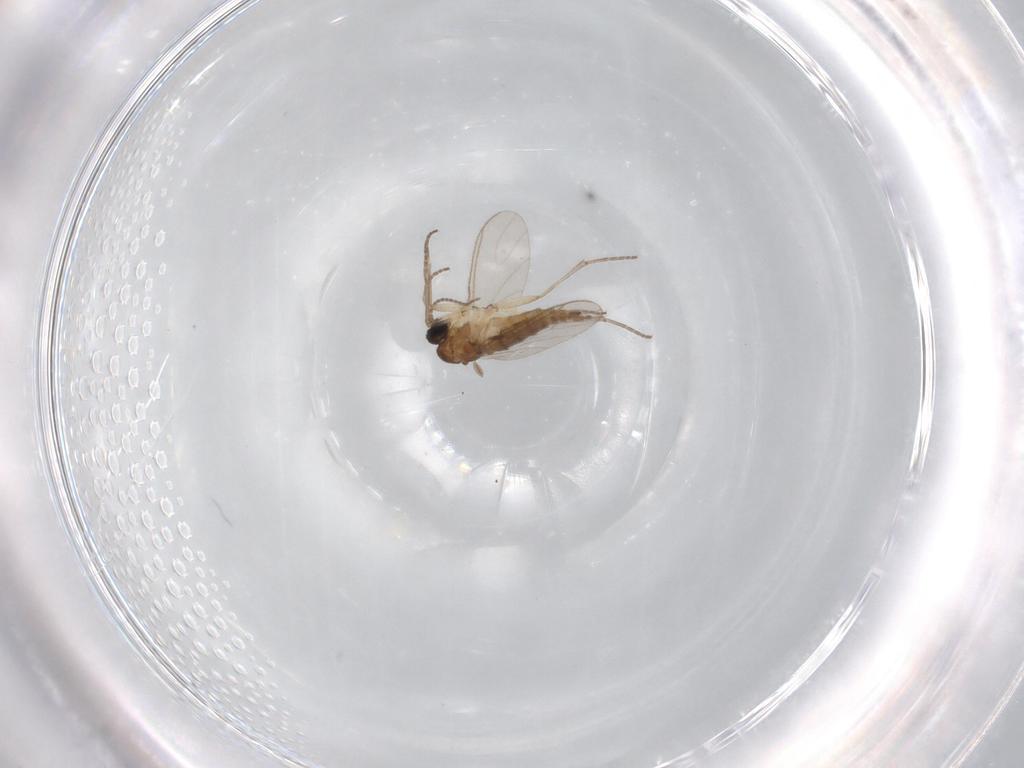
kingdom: Animalia
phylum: Arthropoda
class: Insecta
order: Diptera
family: Sciaridae
